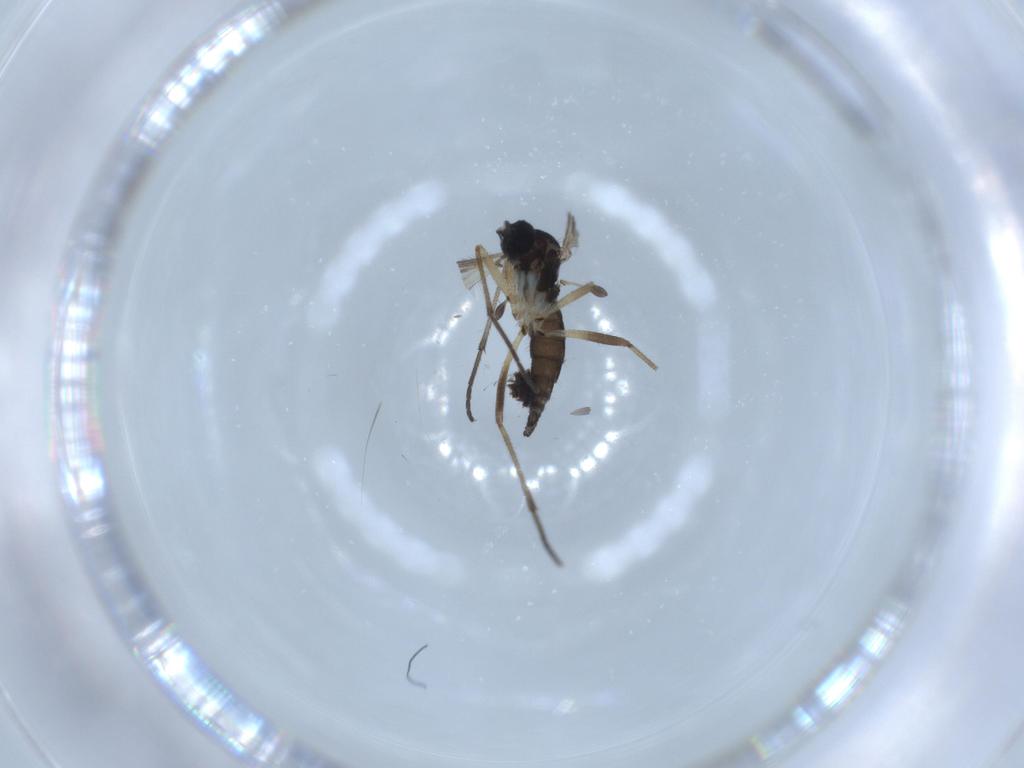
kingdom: Animalia
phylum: Arthropoda
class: Insecta
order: Diptera
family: Sciaridae
